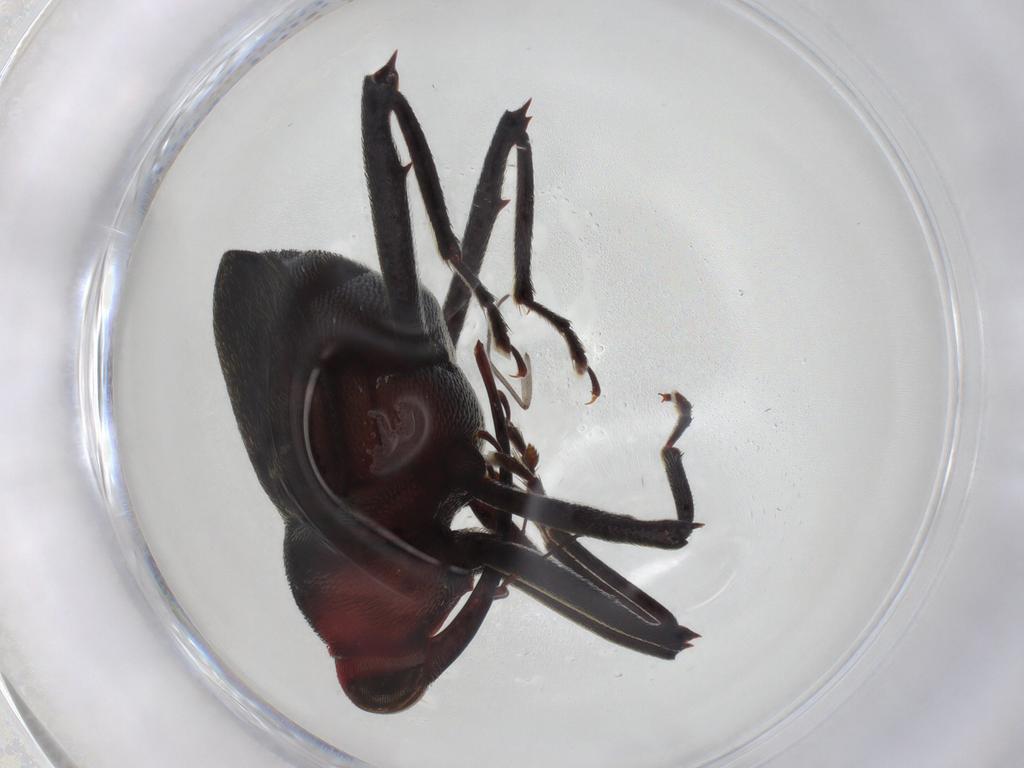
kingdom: Animalia
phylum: Arthropoda
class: Insecta
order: Coleoptera
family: Curculionidae
